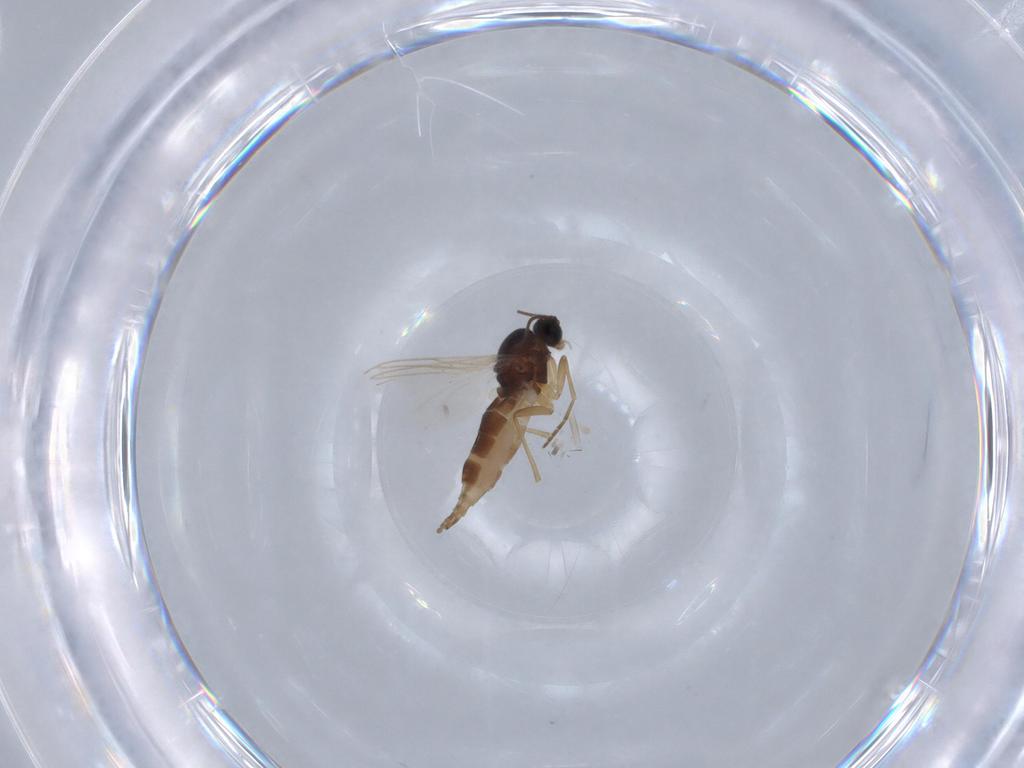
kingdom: Animalia
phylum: Arthropoda
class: Insecta
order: Diptera
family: Sciaridae
